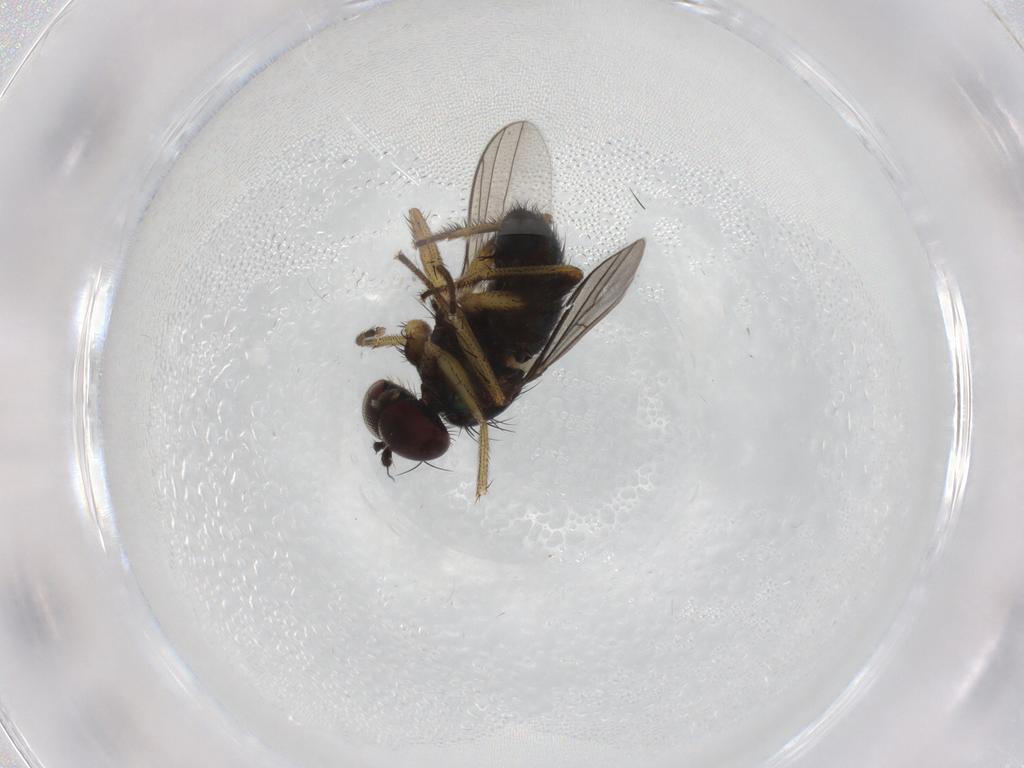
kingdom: Animalia
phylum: Arthropoda
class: Insecta
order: Diptera
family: Dolichopodidae
